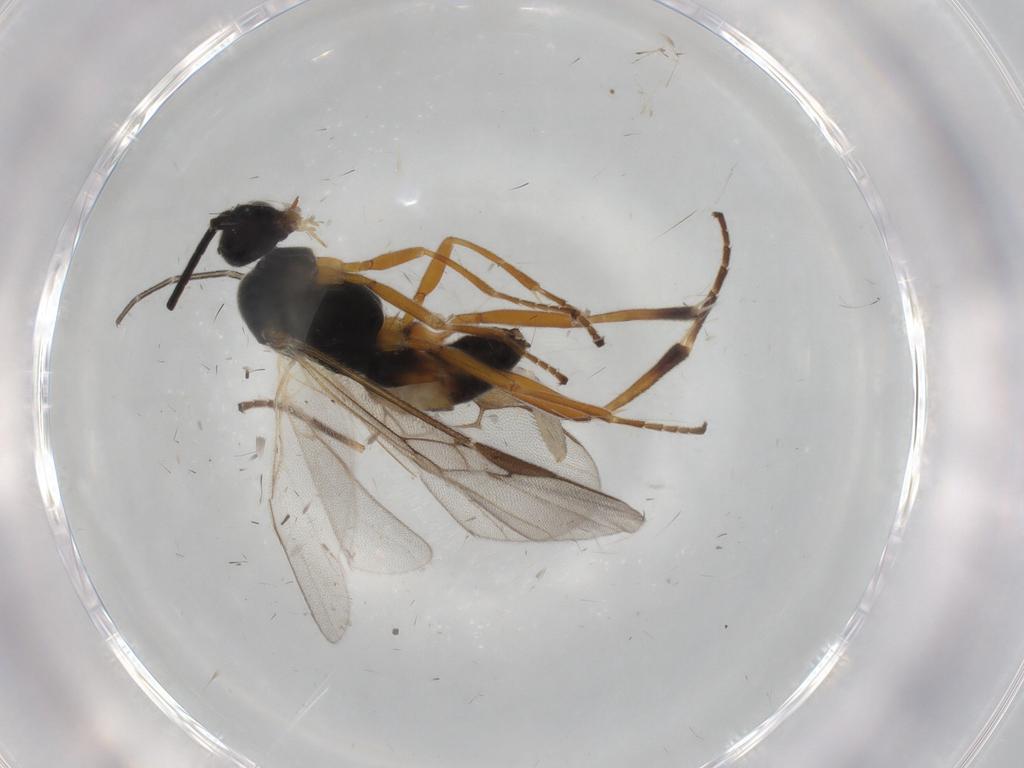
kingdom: Animalia
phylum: Arthropoda
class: Insecta
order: Hymenoptera
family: Braconidae
